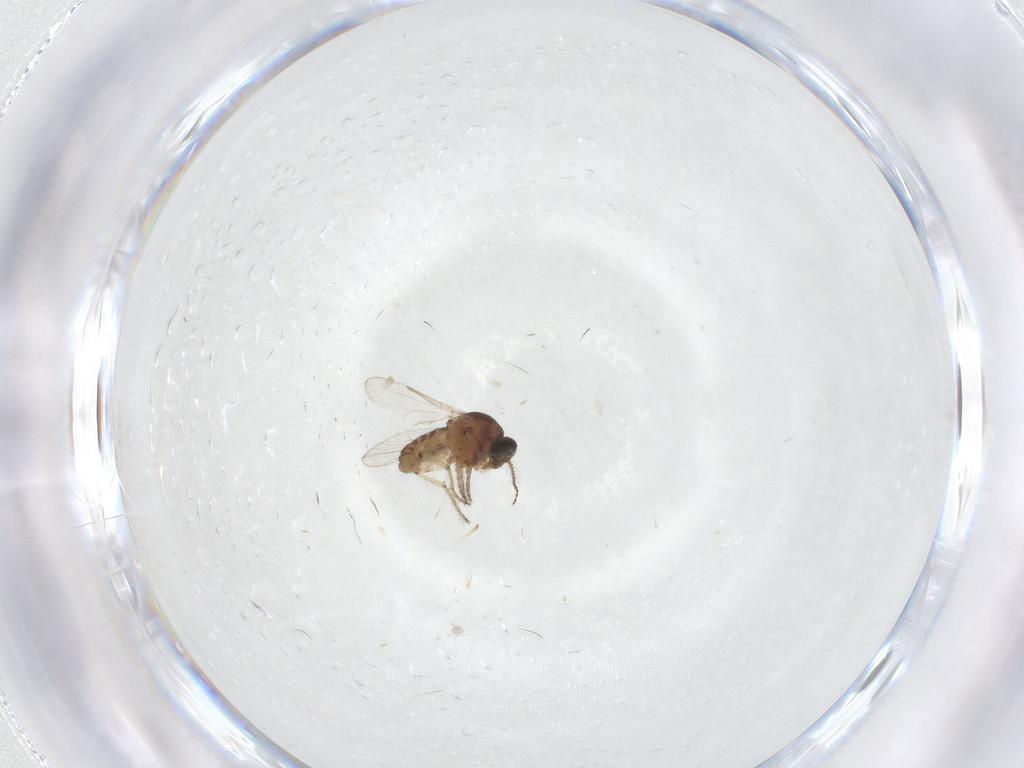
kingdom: Animalia
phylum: Arthropoda
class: Insecta
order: Diptera
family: Ceratopogonidae
